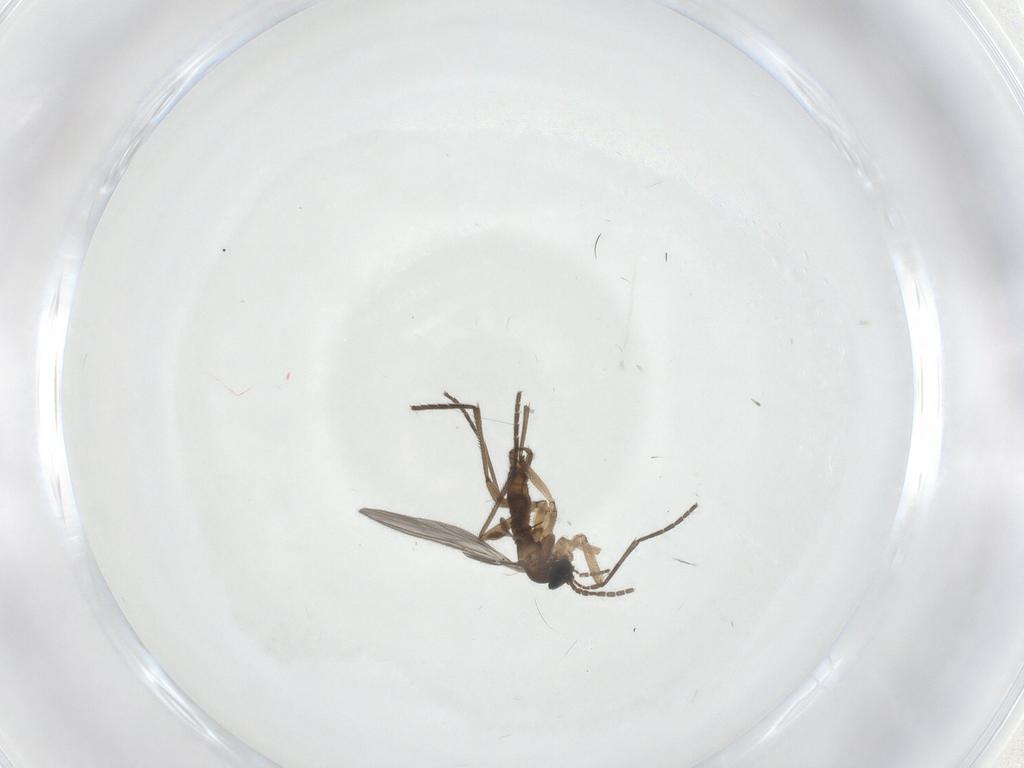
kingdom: Animalia
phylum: Arthropoda
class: Insecta
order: Diptera
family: Sciaridae
